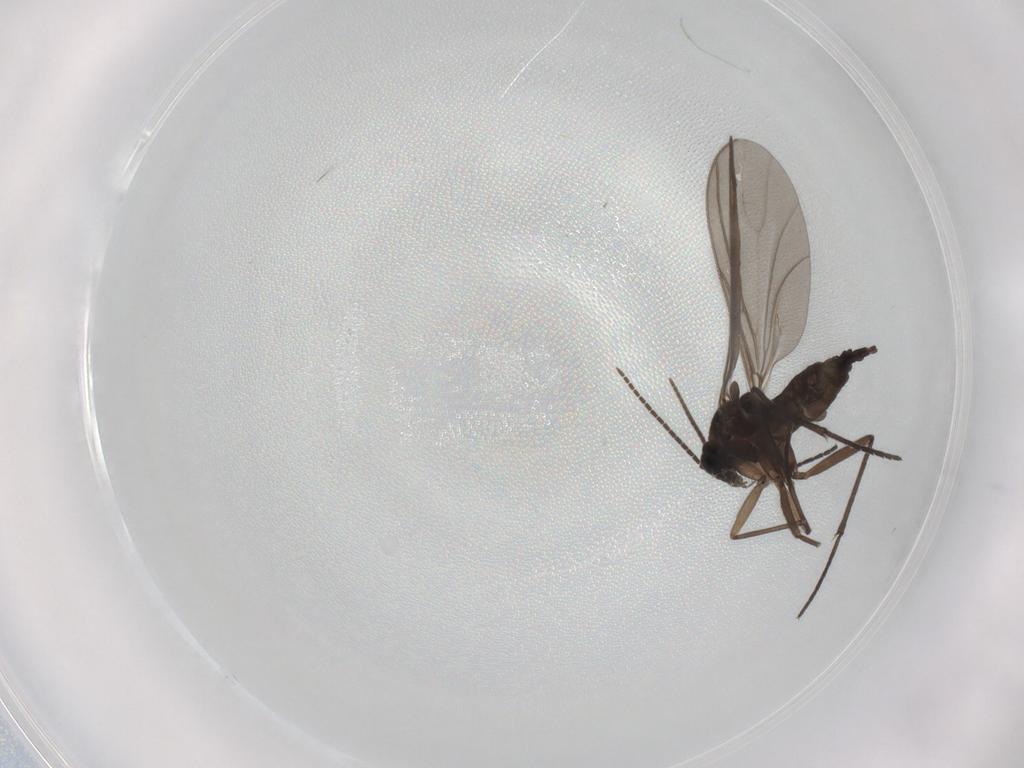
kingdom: Animalia
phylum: Arthropoda
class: Insecta
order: Diptera
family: Sciaridae
